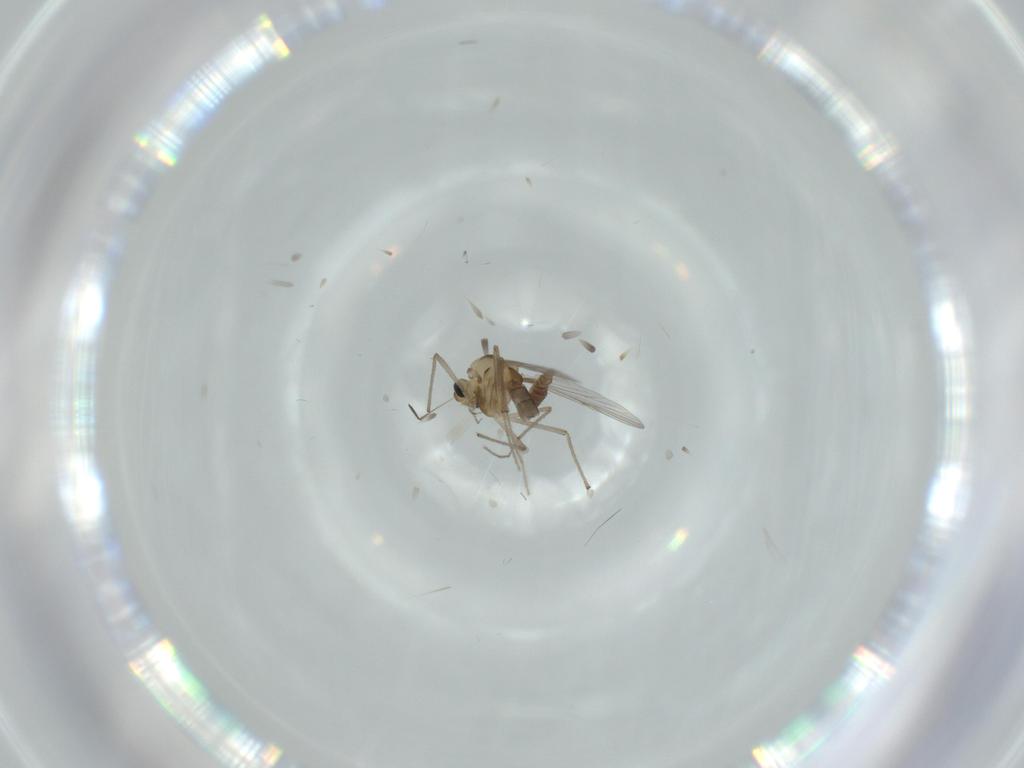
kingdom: Animalia
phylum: Arthropoda
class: Insecta
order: Diptera
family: Chironomidae
